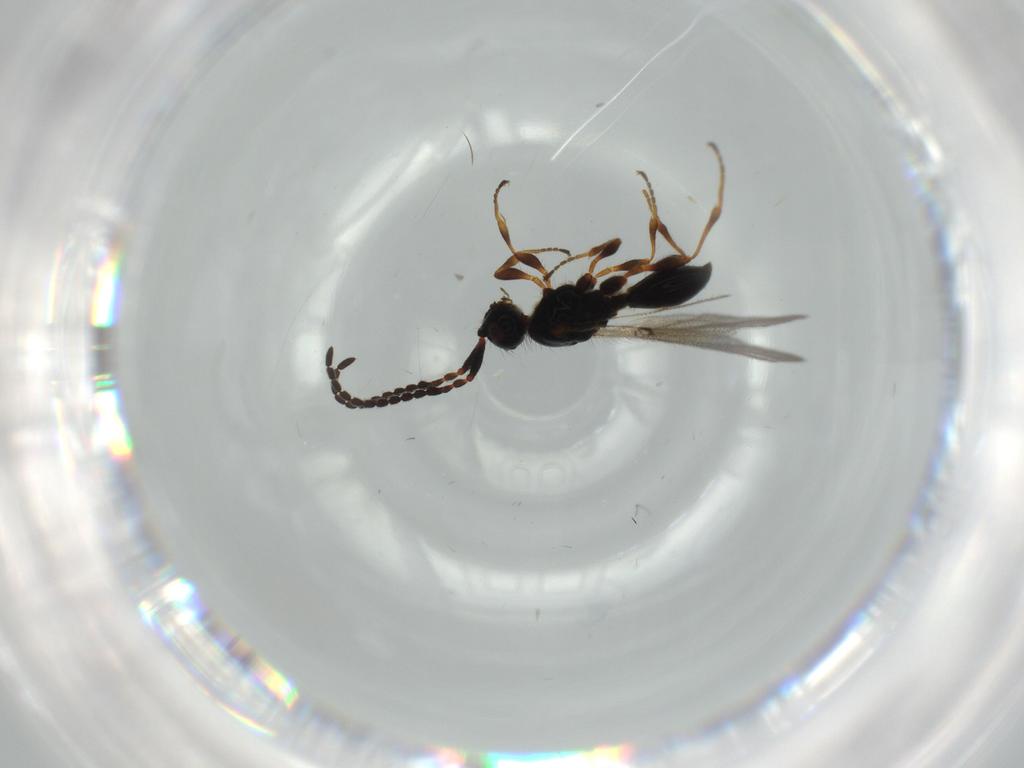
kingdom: Animalia
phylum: Arthropoda
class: Insecta
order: Hymenoptera
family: Diapriidae
